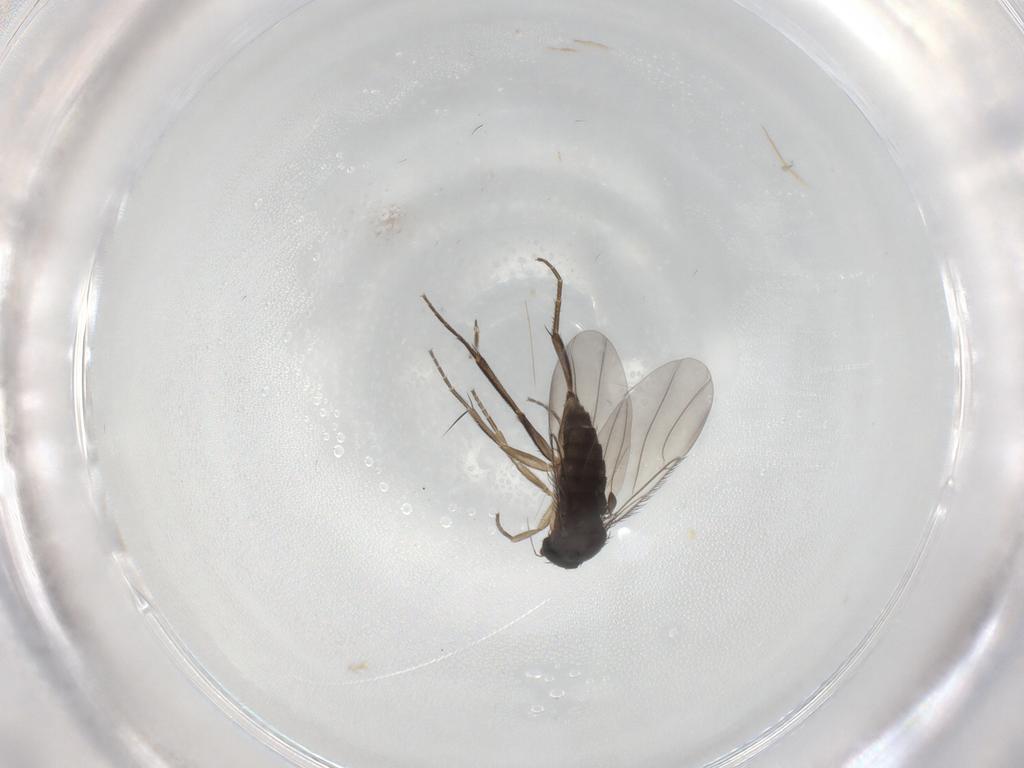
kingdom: Animalia
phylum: Arthropoda
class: Insecta
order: Diptera
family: Phoridae
